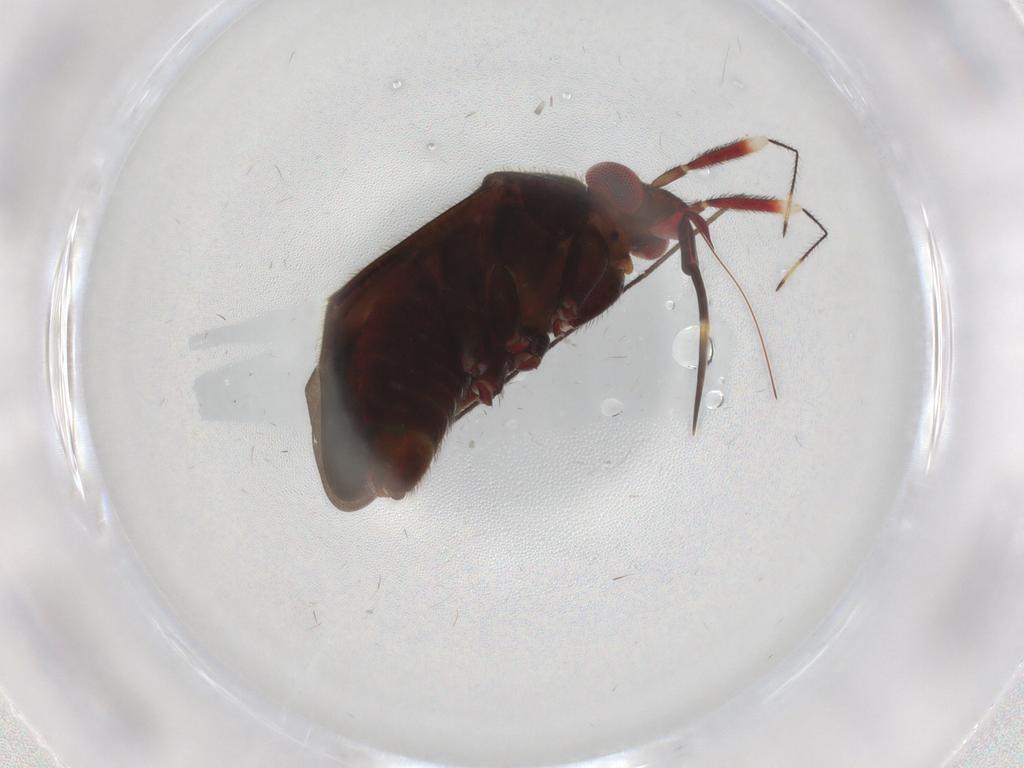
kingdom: Animalia
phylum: Arthropoda
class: Insecta
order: Hemiptera
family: Miridae
